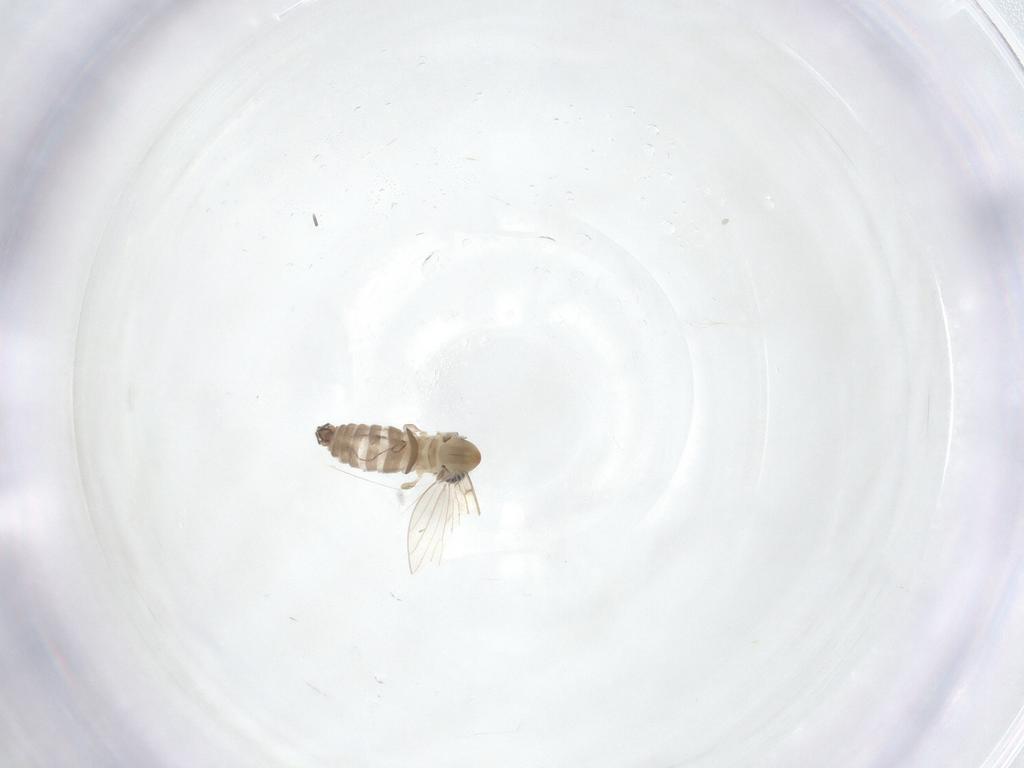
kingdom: Animalia
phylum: Arthropoda
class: Insecta
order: Diptera
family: Psychodidae
